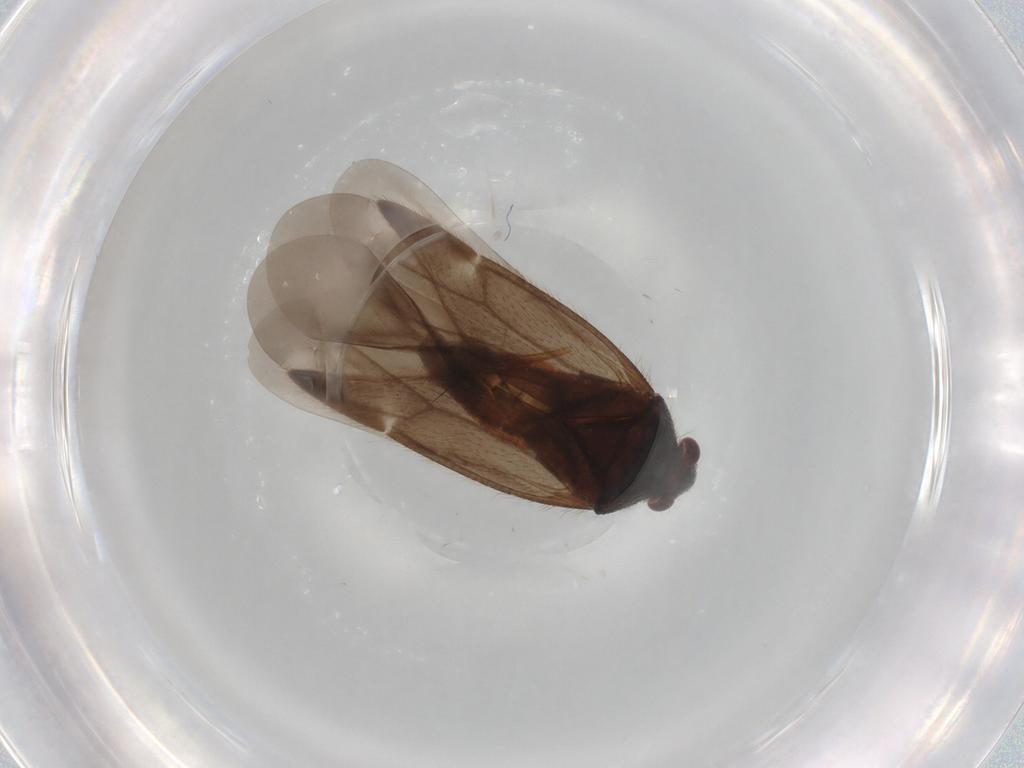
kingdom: Animalia
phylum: Arthropoda
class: Insecta
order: Hemiptera
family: Miridae
